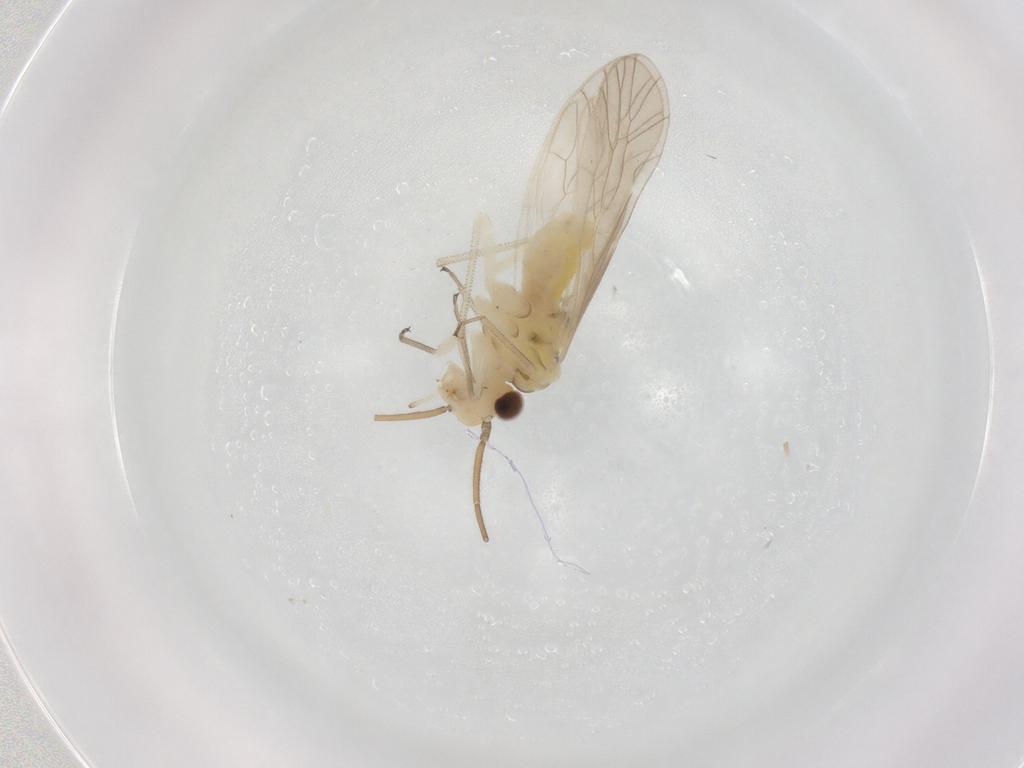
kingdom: Animalia
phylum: Arthropoda
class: Insecta
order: Psocodea
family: Caeciliusidae
